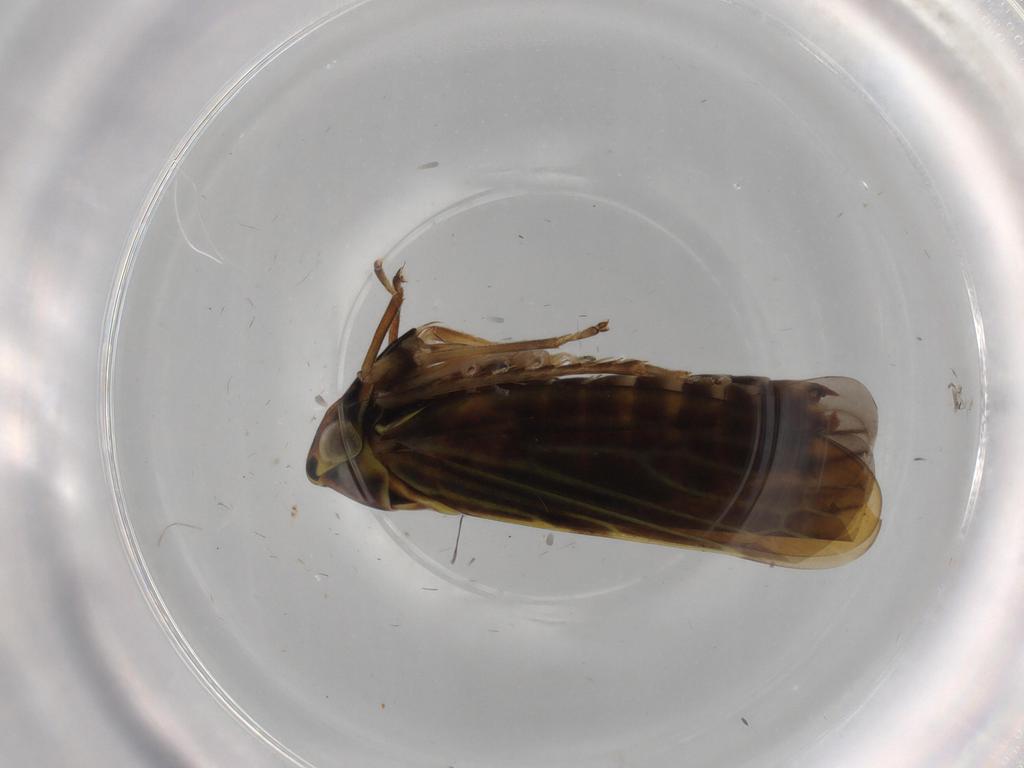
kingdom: Animalia
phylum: Arthropoda
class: Insecta
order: Hemiptera
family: Cicadellidae
